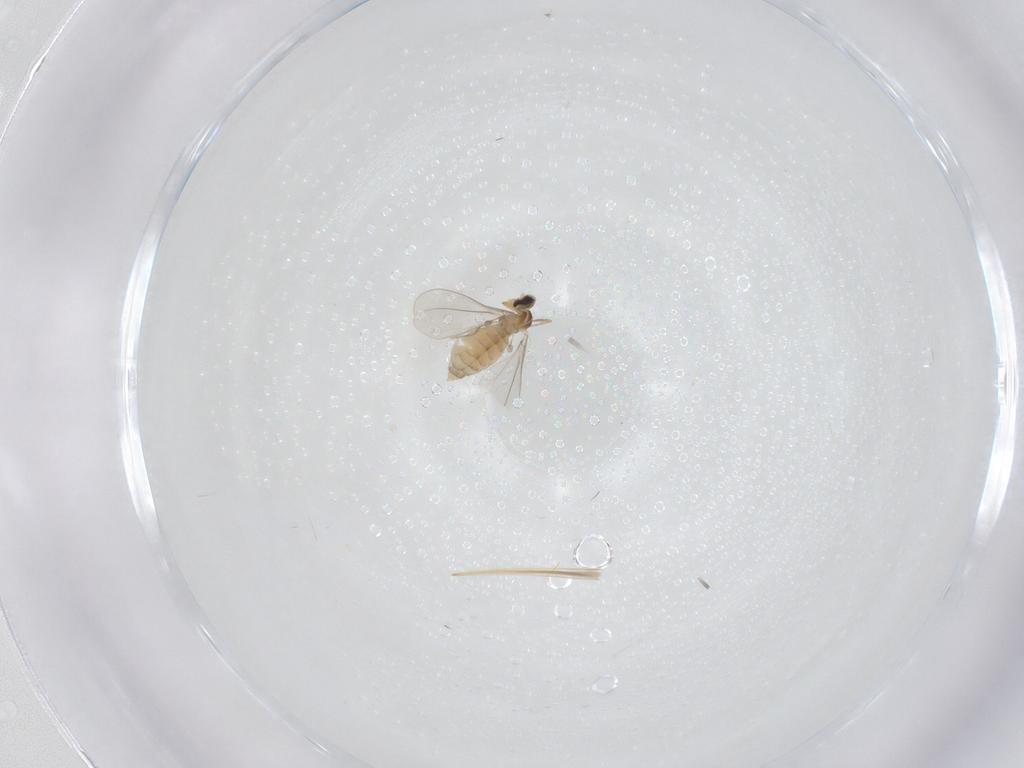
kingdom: Animalia
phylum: Arthropoda
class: Insecta
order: Diptera
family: Cecidomyiidae
